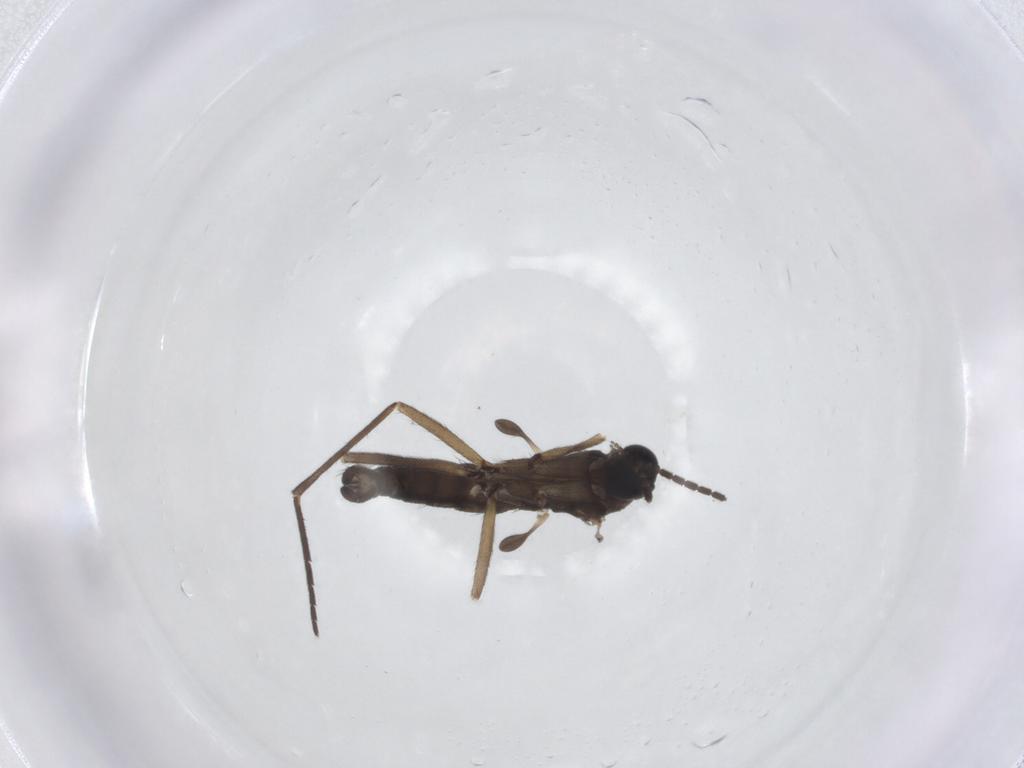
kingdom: Animalia
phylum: Arthropoda
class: Insecta
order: Diptera
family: Sciaridae
